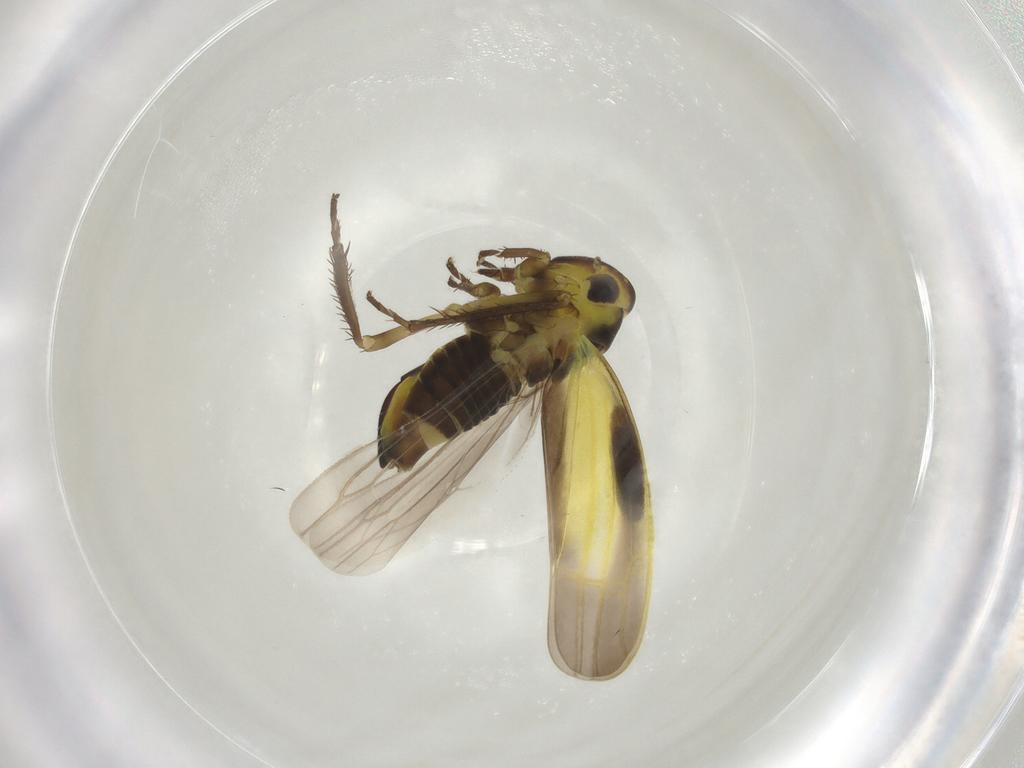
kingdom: Animalia
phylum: Arthropoda
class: Insecta
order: Hemiptera
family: Cicadellidae
